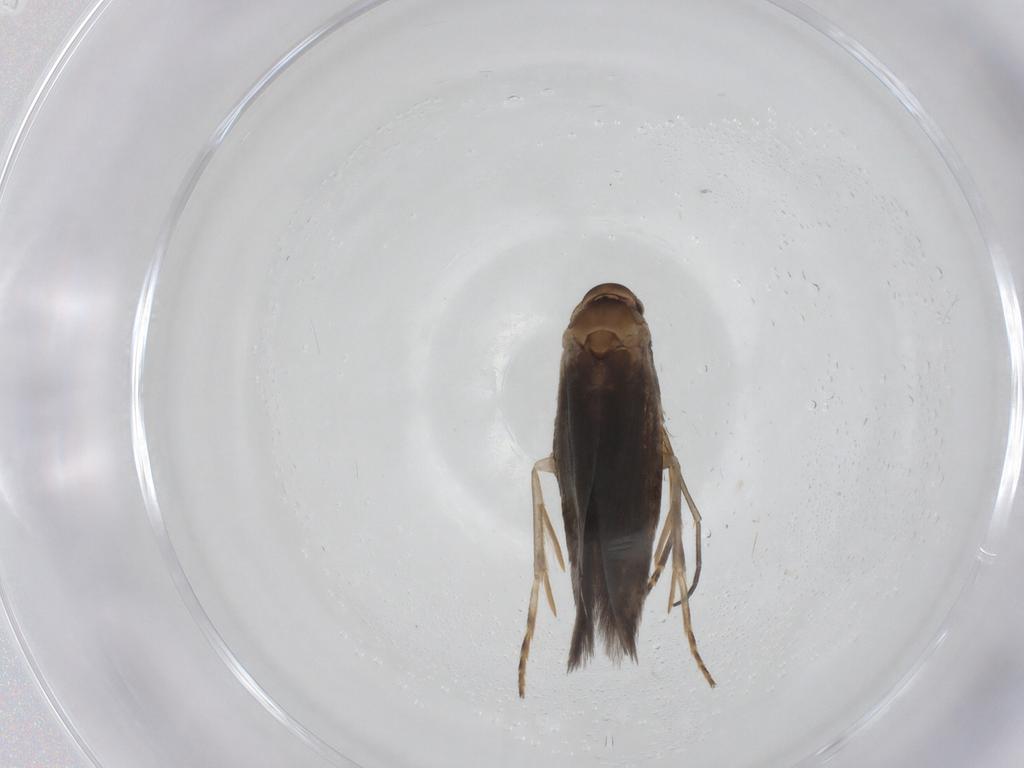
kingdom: Animalia
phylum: Arthropoda
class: Insecta
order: Lepidoptera
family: Elachistidae
